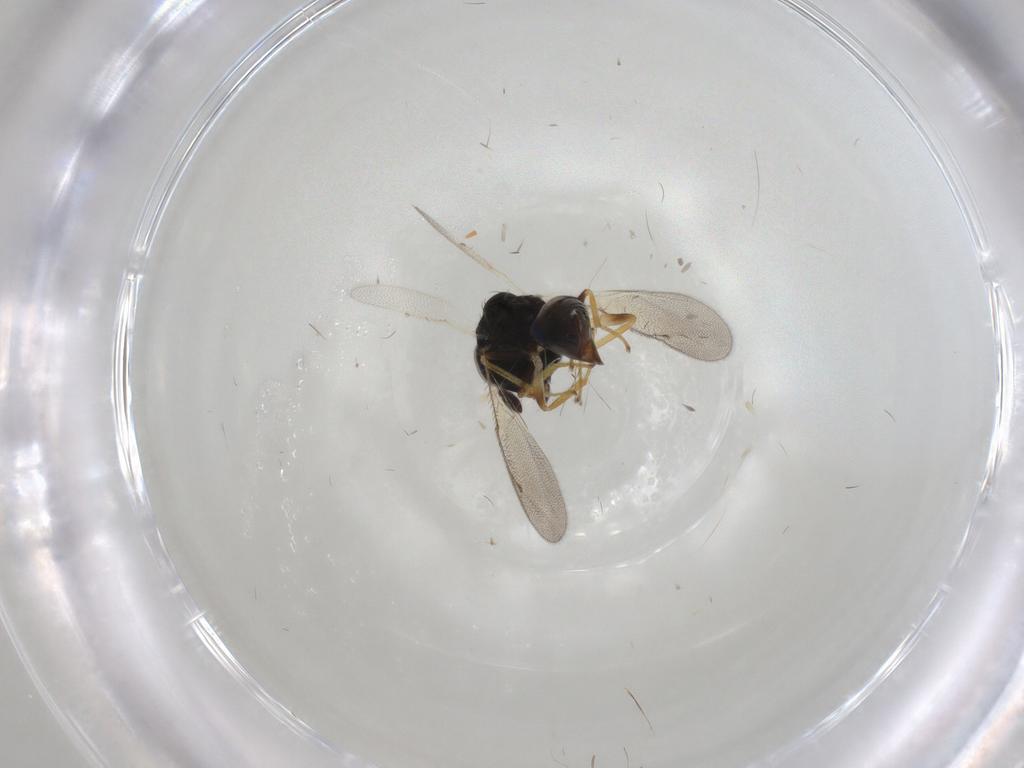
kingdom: Animalia
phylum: Arthropoda
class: Insecta
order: Hymenoptera
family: Diapriidae
